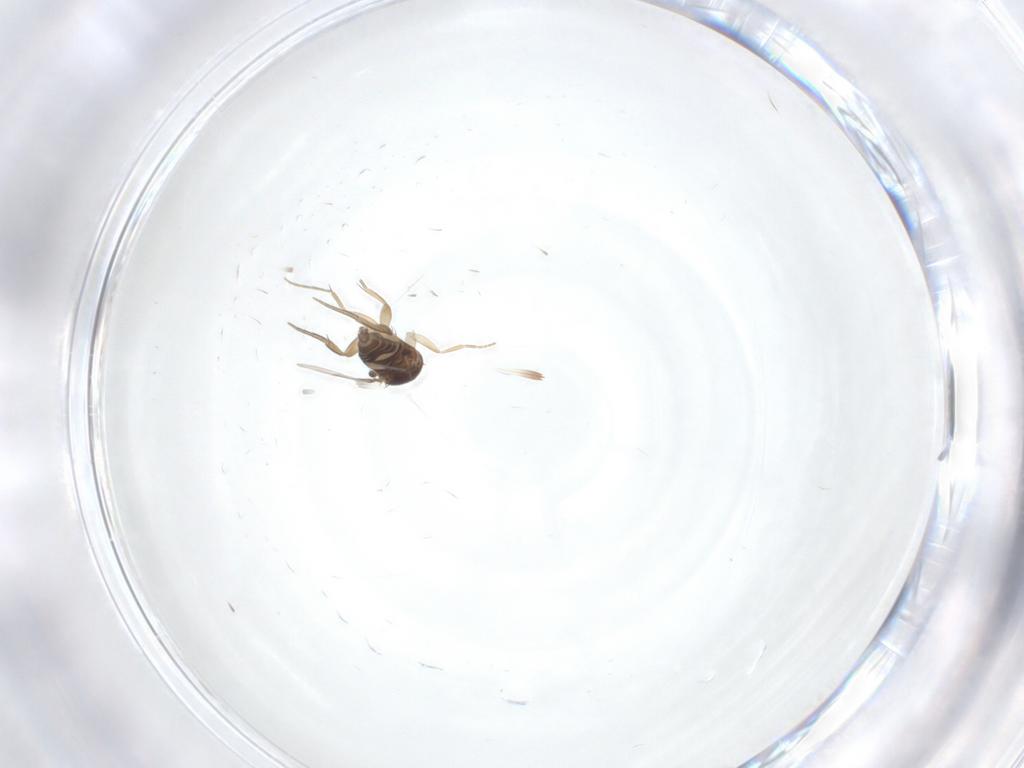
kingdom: Animalia
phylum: Arthropoda
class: Insecta
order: Diptera
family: Phoridae
